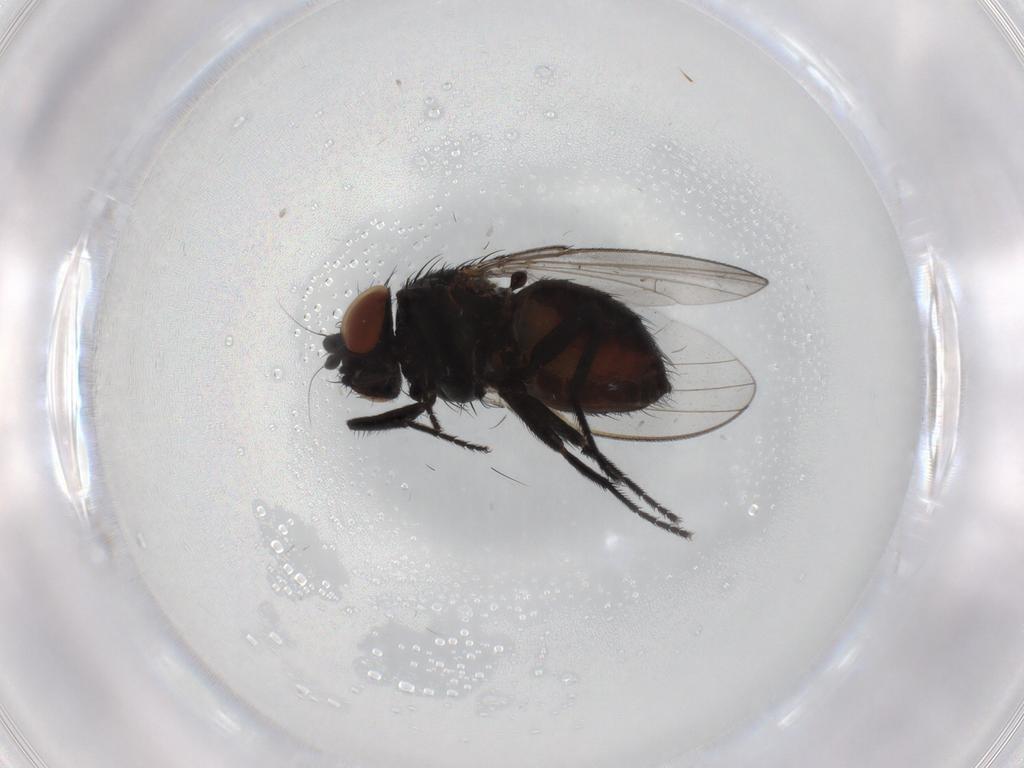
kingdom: Animalia
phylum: Arthropoda
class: Insecta
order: Diptera
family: Milichiidae
